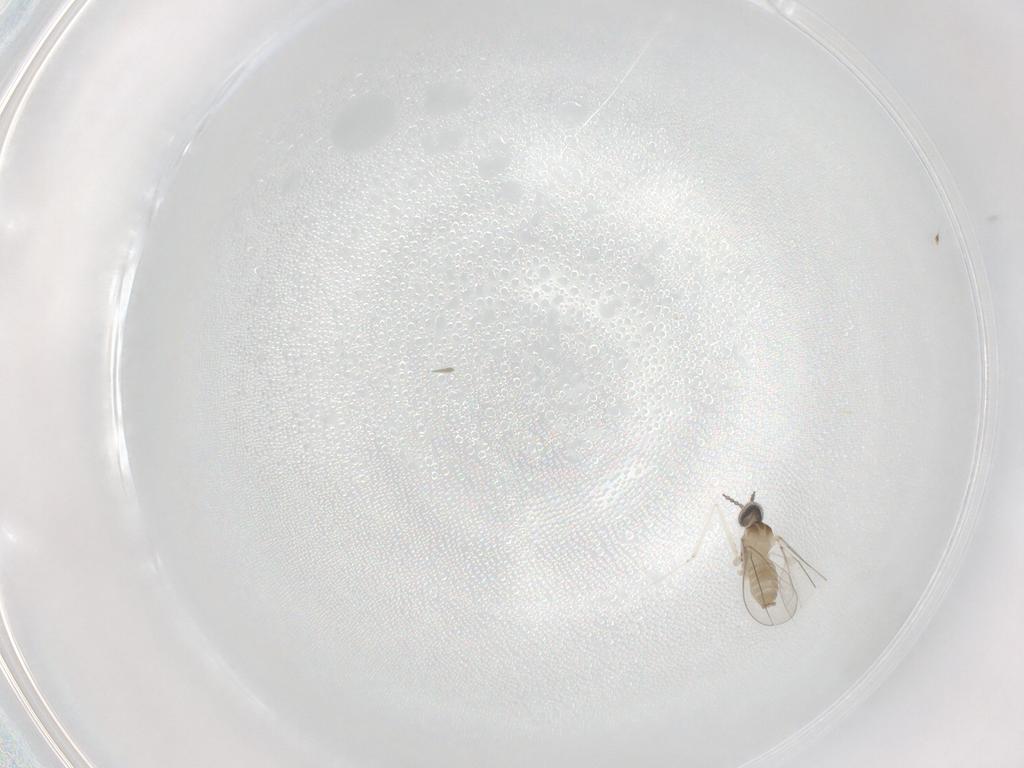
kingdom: Animalia
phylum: Arthropoda
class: Insecta
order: Diptera
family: Cecidomyiidae
